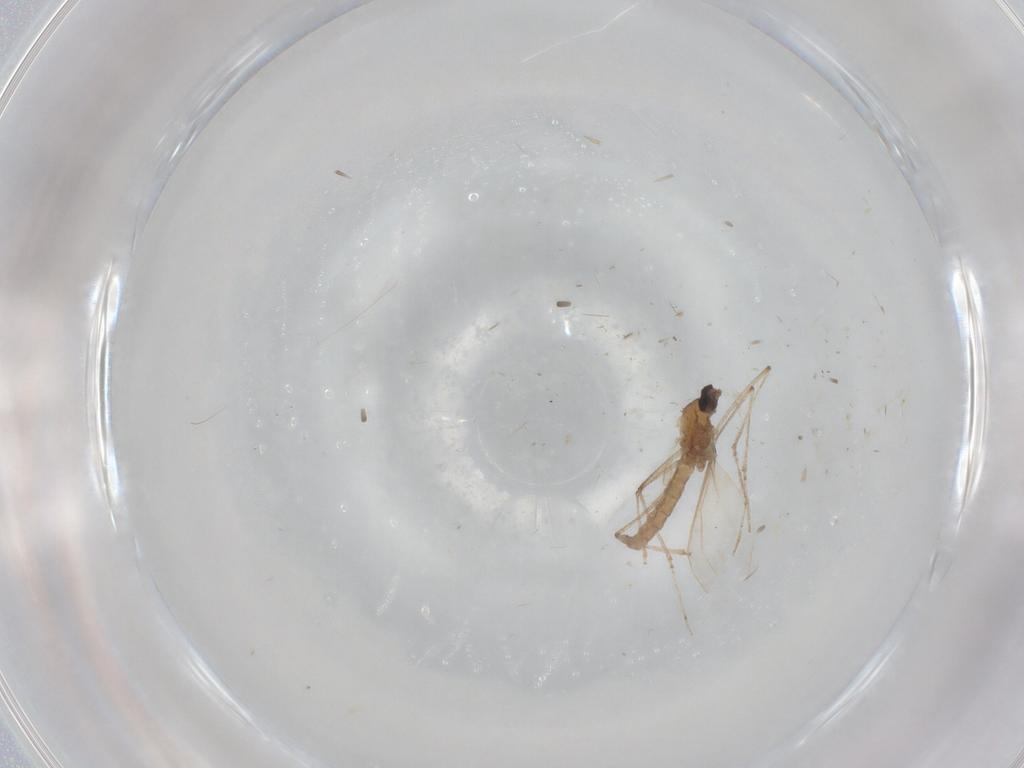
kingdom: Animalia
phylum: Arthropoda
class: Insecta
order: Diptera
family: Cecidomyiidae
